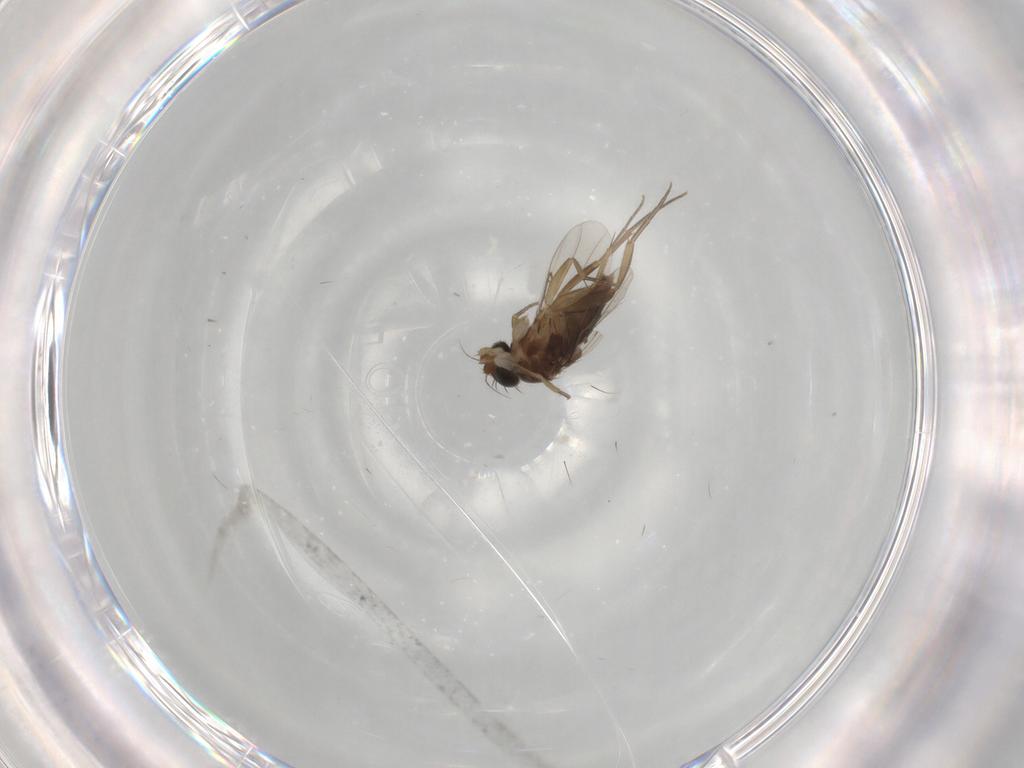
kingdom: Animalia
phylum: Arthropoda
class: Insecta
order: Diptera
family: Phoridae
